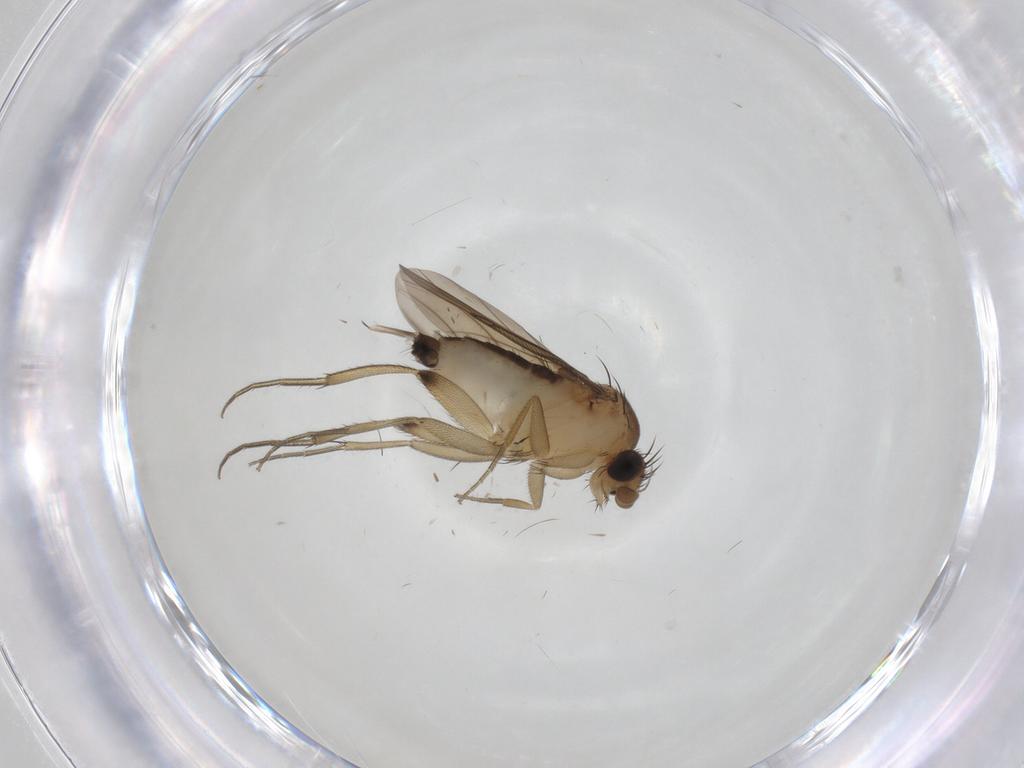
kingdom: Animalia
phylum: Arthropoda
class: Insecta
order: Diptera
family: Phoridae
